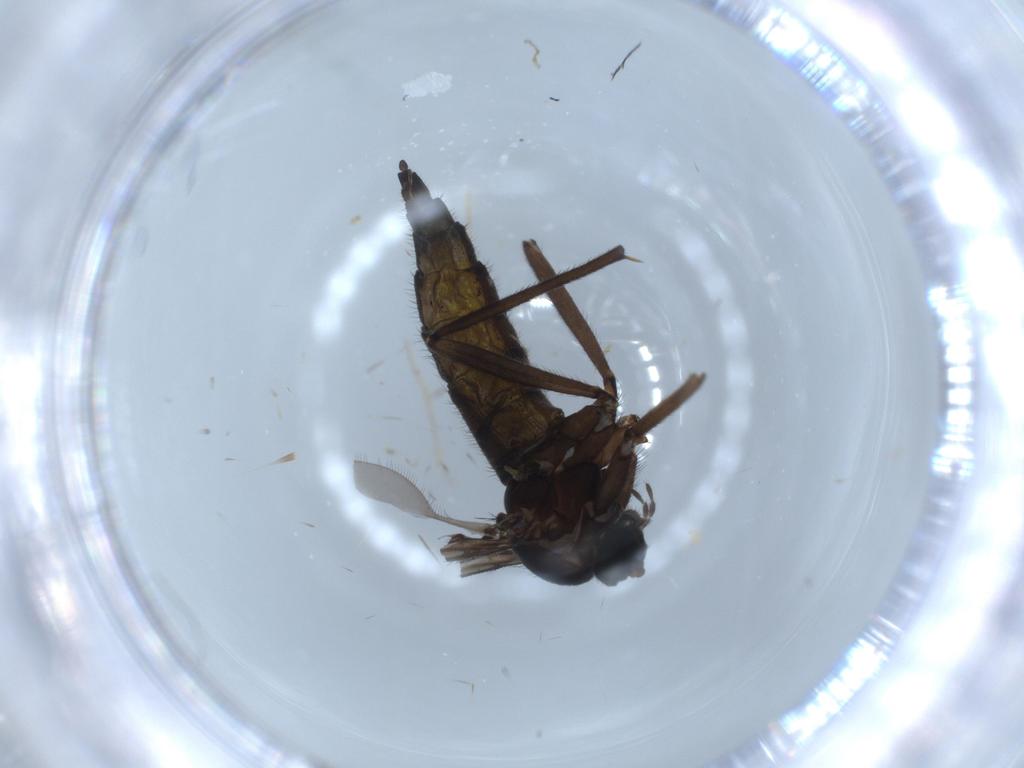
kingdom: Animalia
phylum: Arthropoda
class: Insecta
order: Diptera
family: Sciaridae
